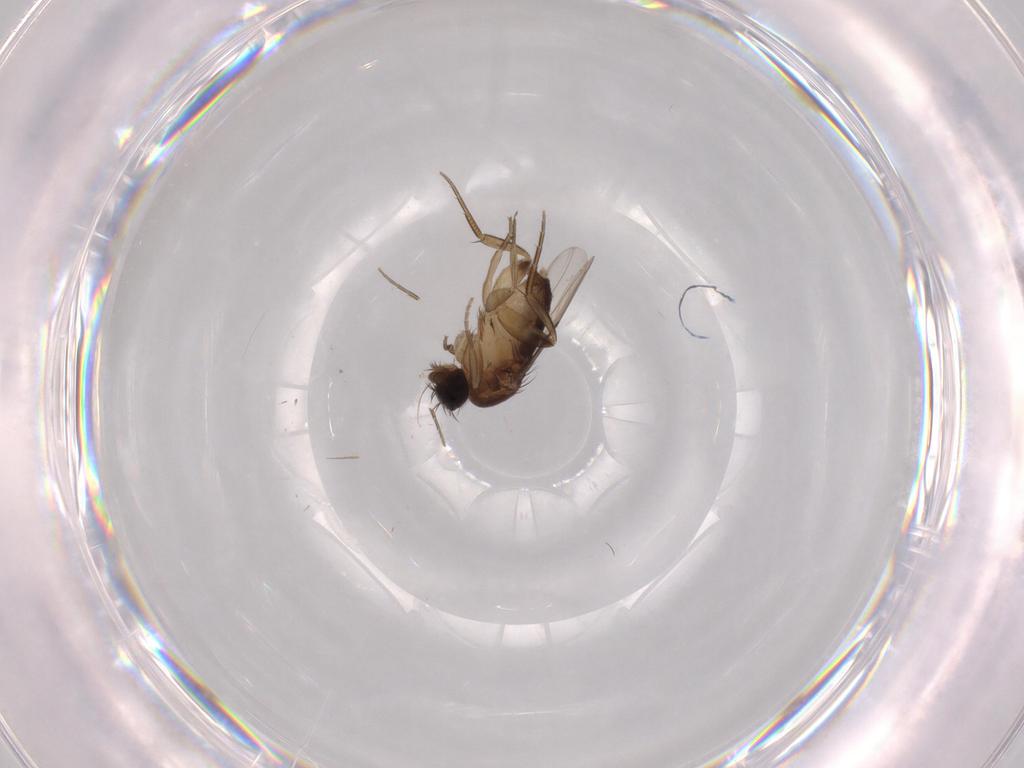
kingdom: Animalia
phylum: Arthropoda
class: Insecta
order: Diptera
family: Phoridae
